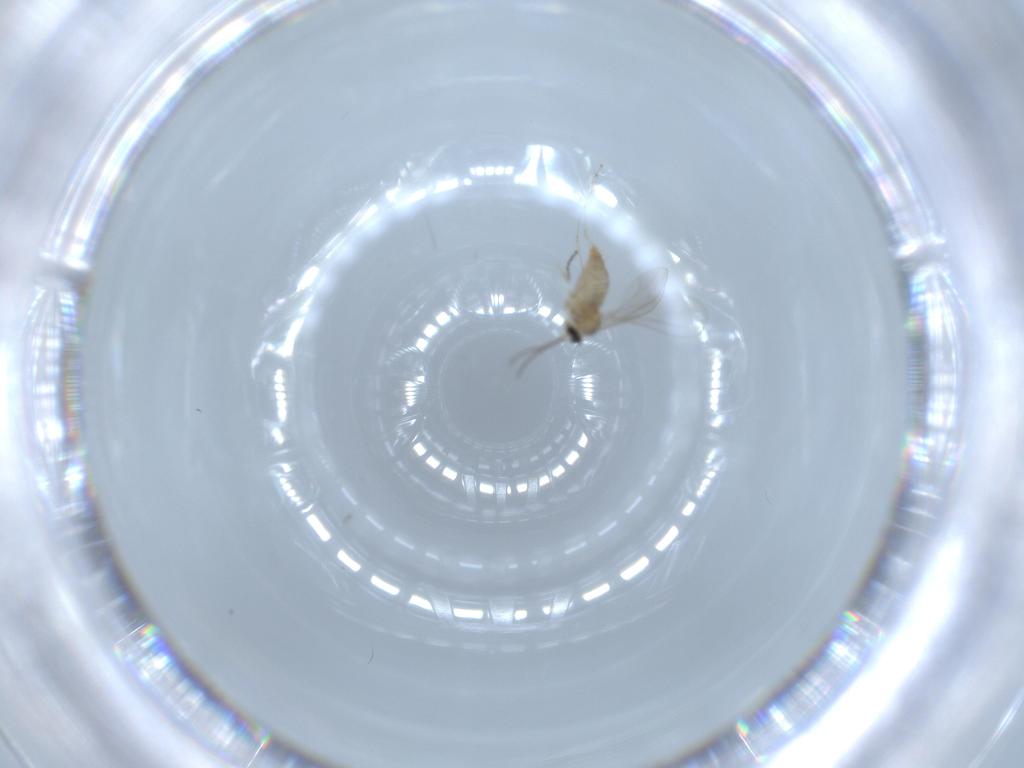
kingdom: Animalia
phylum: Arthropoda
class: Insecta
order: Diptera
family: Cecidomyiidae
